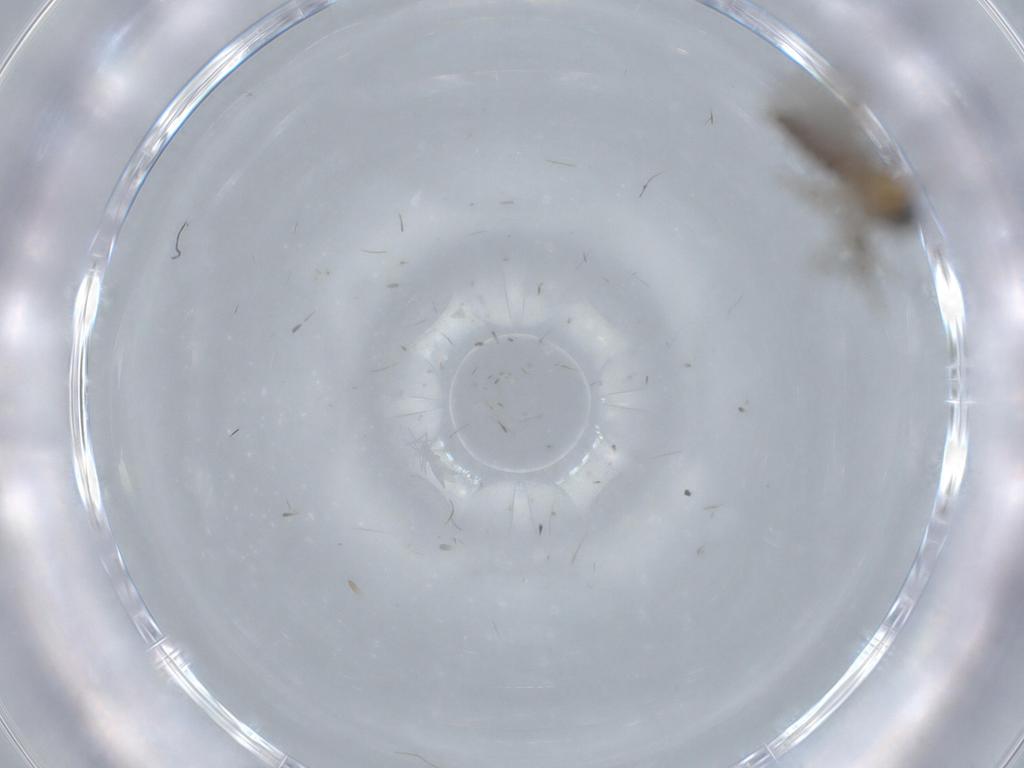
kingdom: Animalia
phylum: Arthropoda
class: Insecta
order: Diptera
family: Sciaridae
